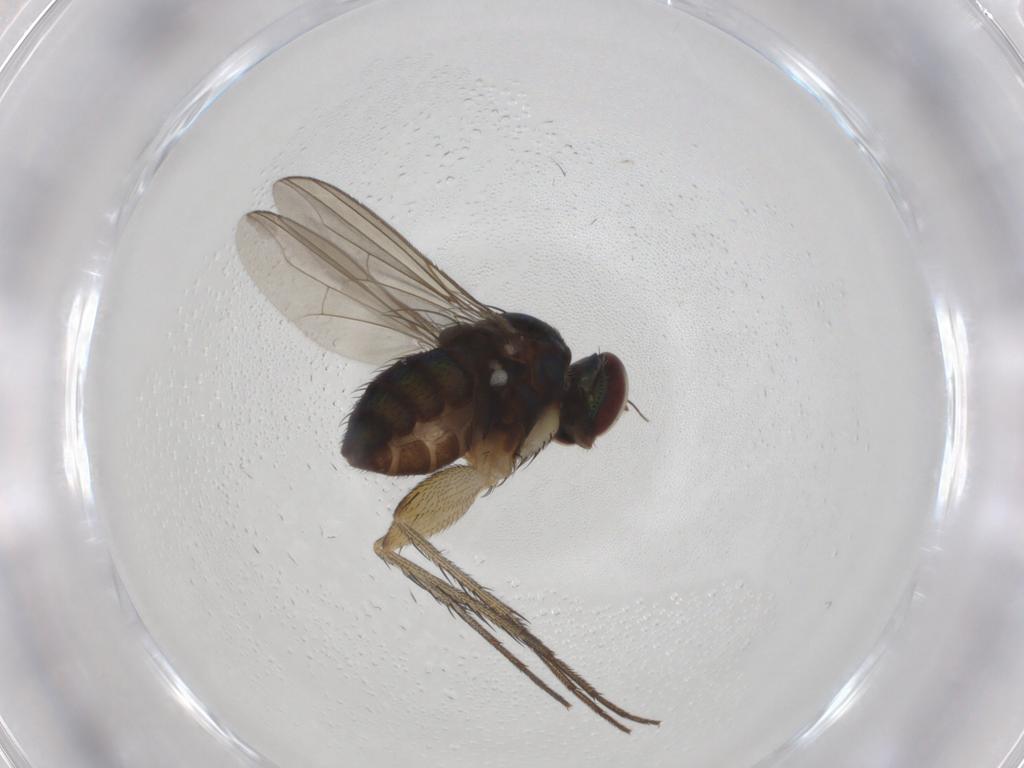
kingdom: Animalia
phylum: Arthropoda
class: Insecta
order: Diptera
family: Dolichopodidae
